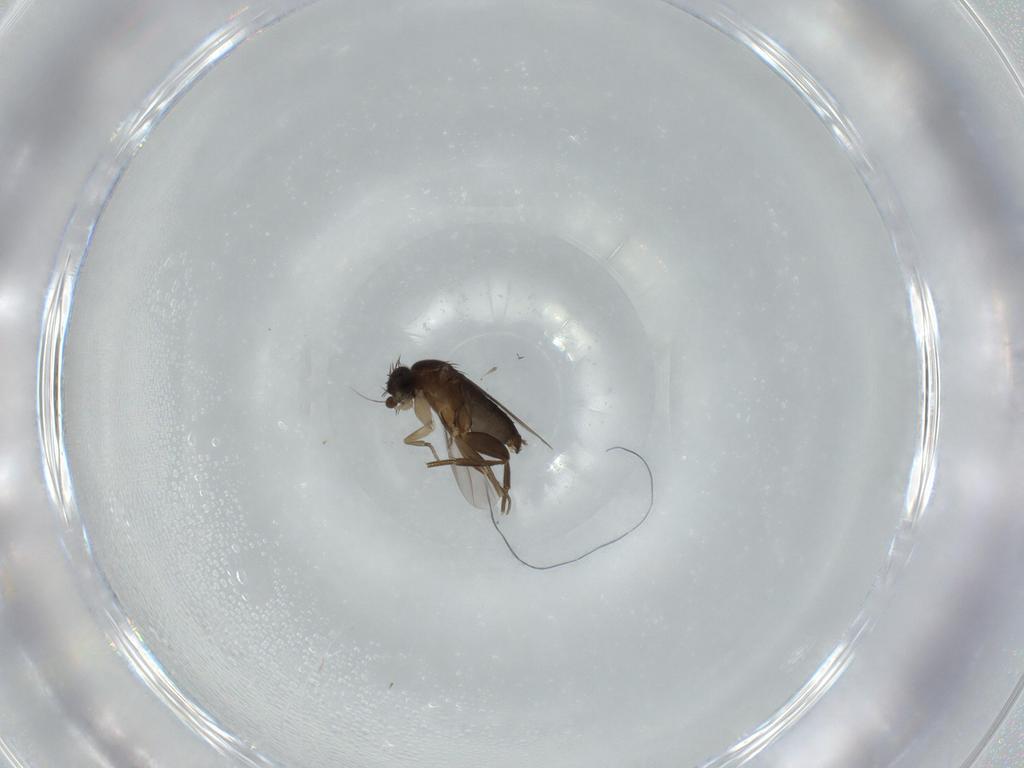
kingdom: Animalia
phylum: Arthropoda
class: Insecta
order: Diptera
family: Phoridae
